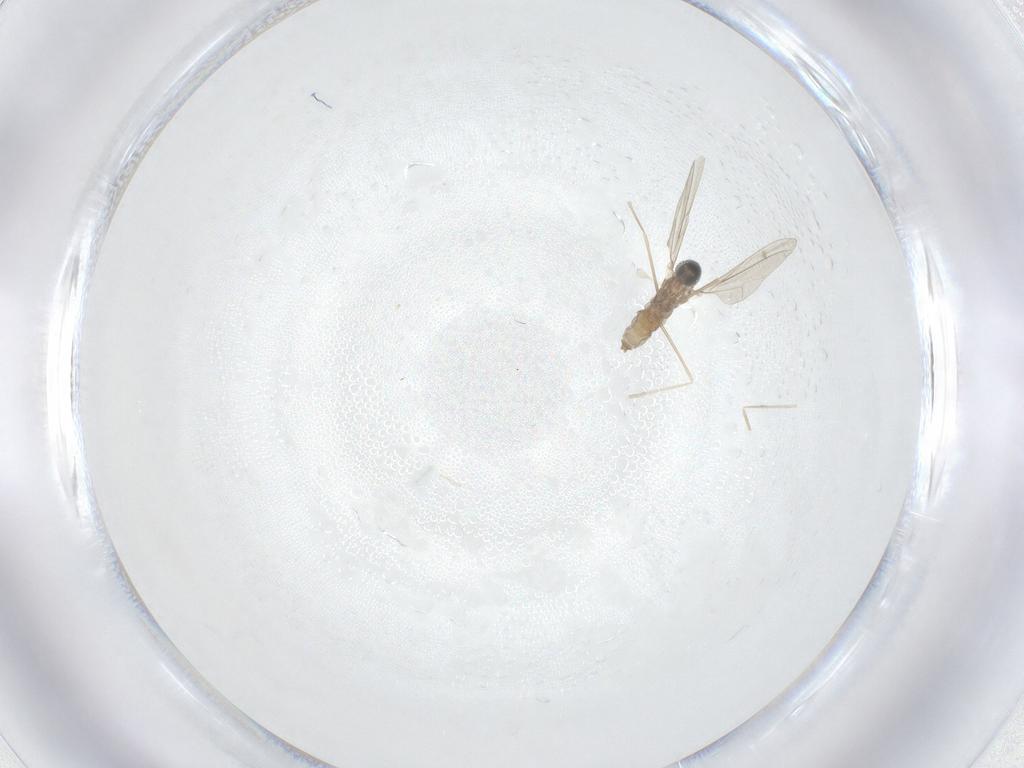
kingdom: Animalia
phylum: Arthropoda
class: Insecta
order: Diptera
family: Cecidomyiidae
